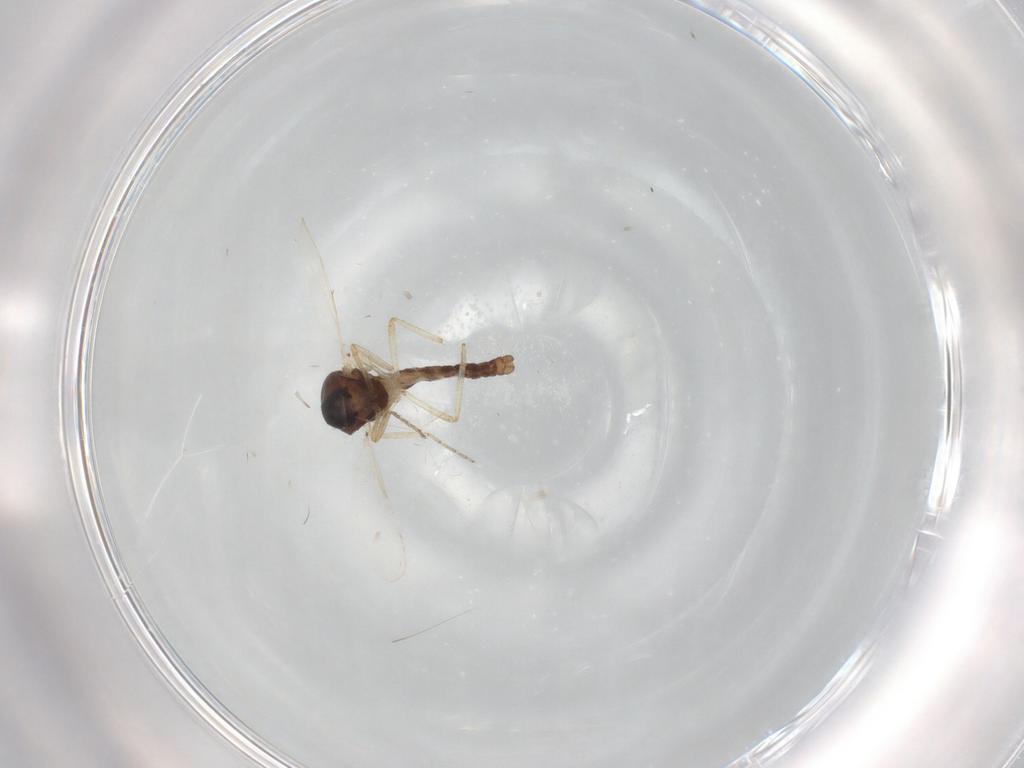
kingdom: Animalia
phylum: Arthropoda
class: Insecta
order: Diptera
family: Ceratopogonidae
